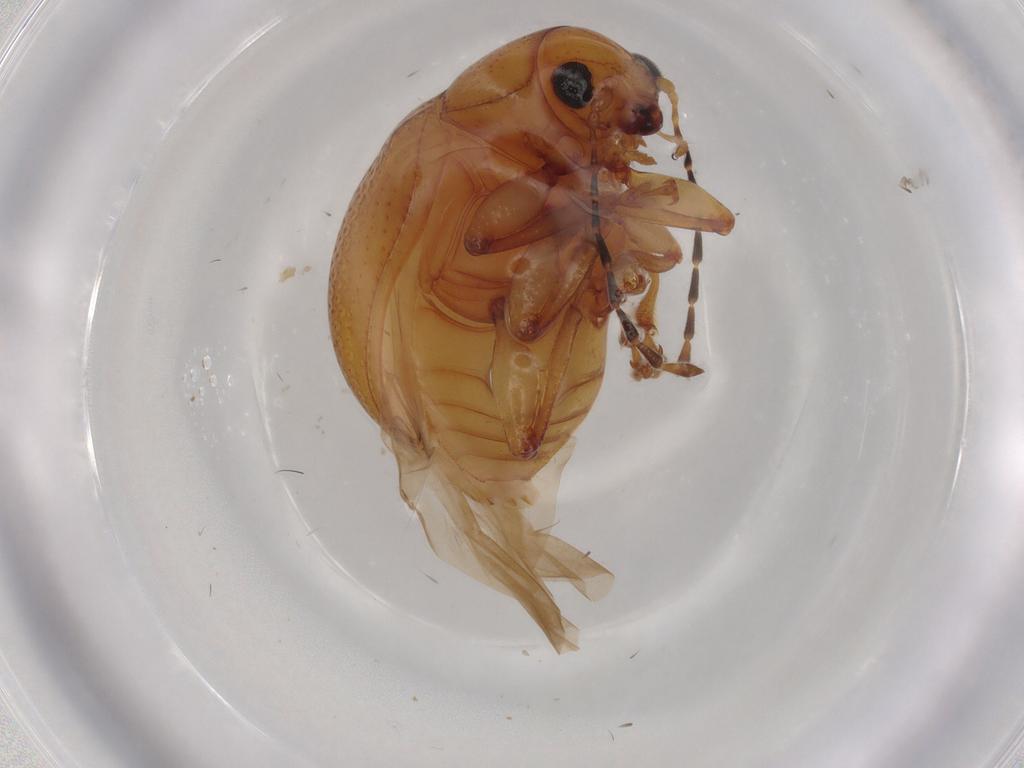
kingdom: Animalia
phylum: Arthropoda
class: Insecta
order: Coleoptera
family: Chrysomelidae
